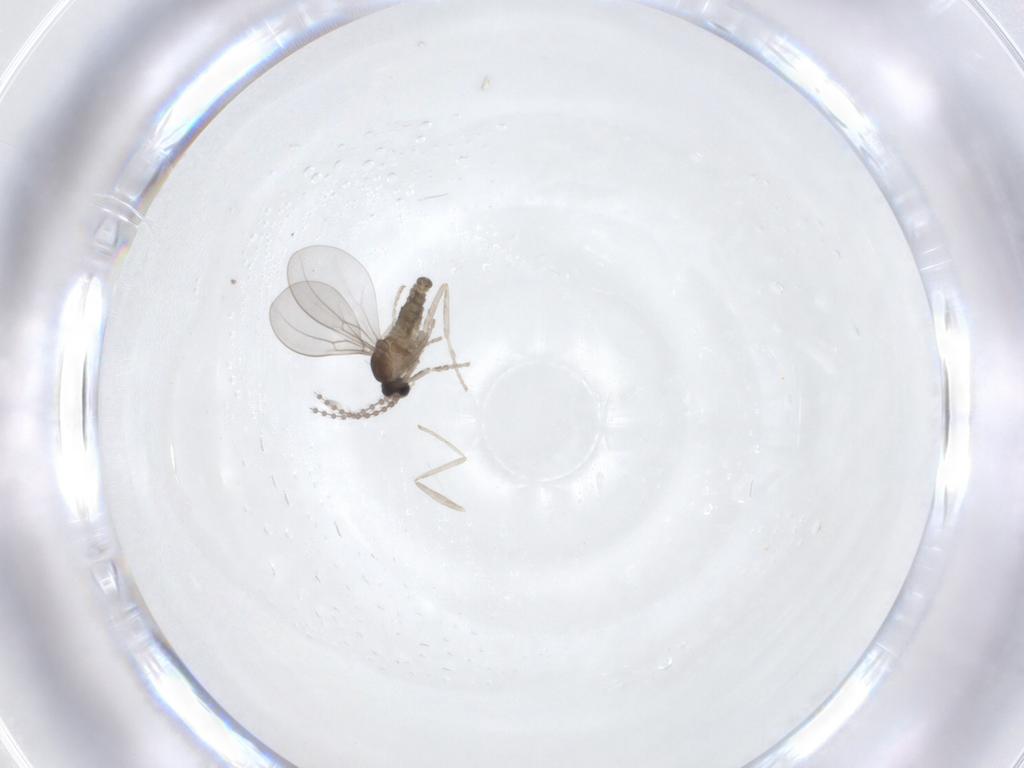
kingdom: Animalia
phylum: Arthropoda
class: Insecta
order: Diptera
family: Cecidomyiidae
